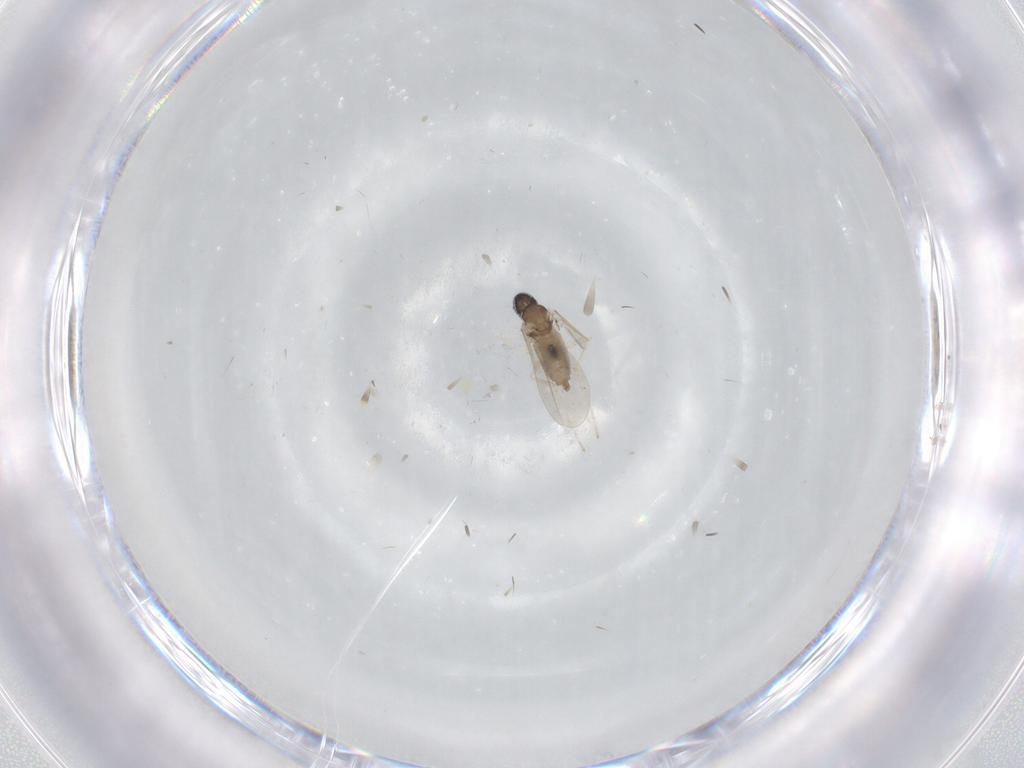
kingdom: Animalia
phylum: Arthropoda
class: Insecta
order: Diptera
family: Cecidomyiidae
